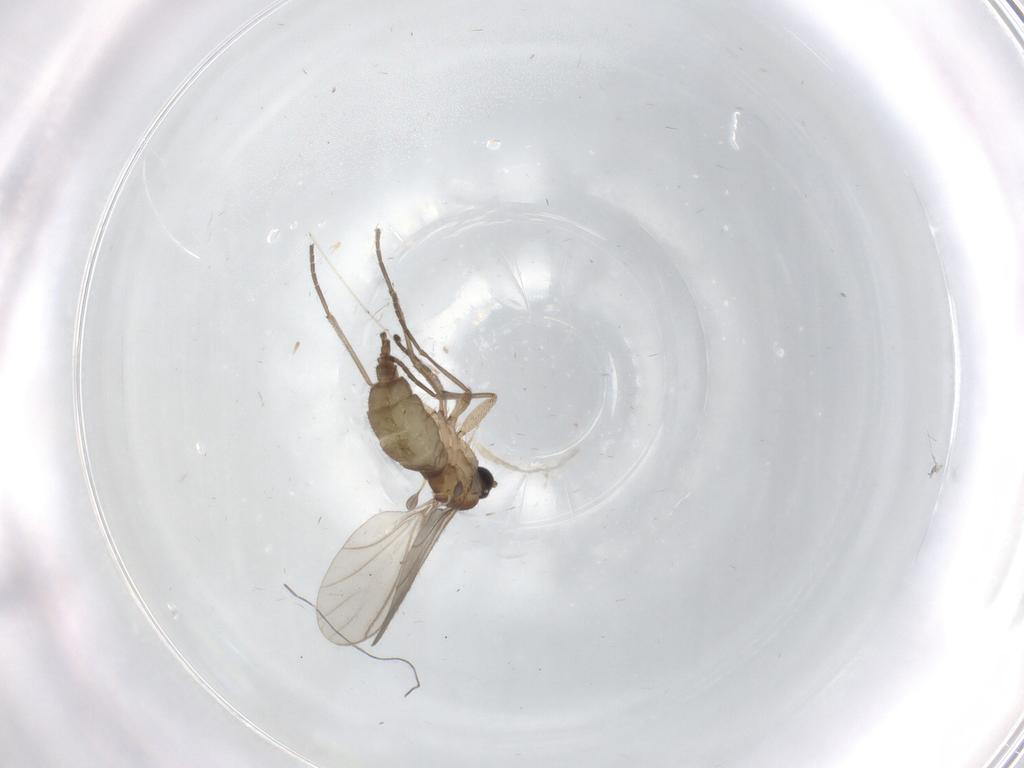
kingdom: Animalia
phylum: Arthropoda
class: Insecta
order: Diptera
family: Sciaridae
